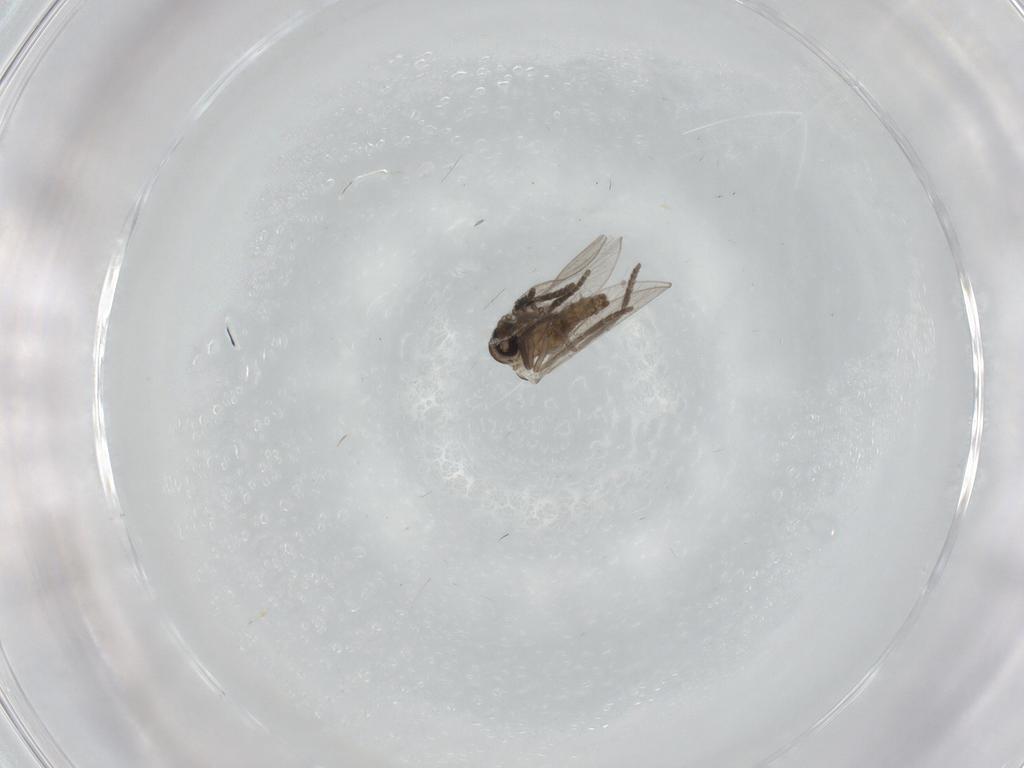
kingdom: Animalia
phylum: Arthropoda
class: Insecta
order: Diptera
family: Psychodidae
